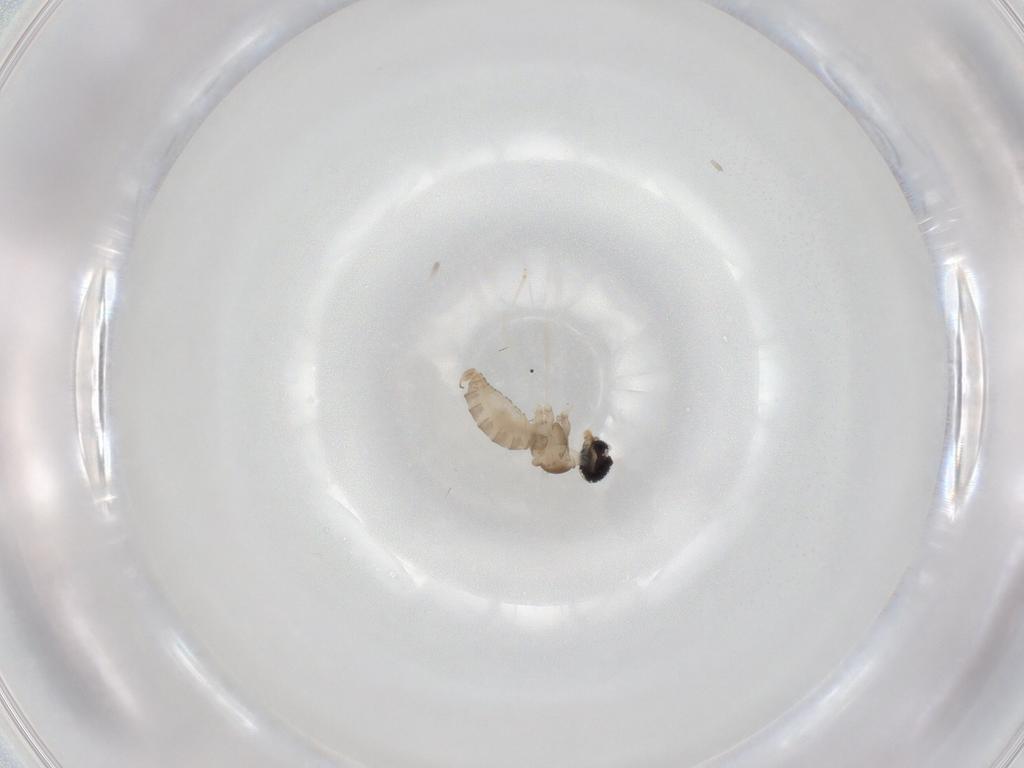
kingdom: Animalia
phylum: Arthropoda
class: Insecta
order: Diptera
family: Cecidomyiidae
